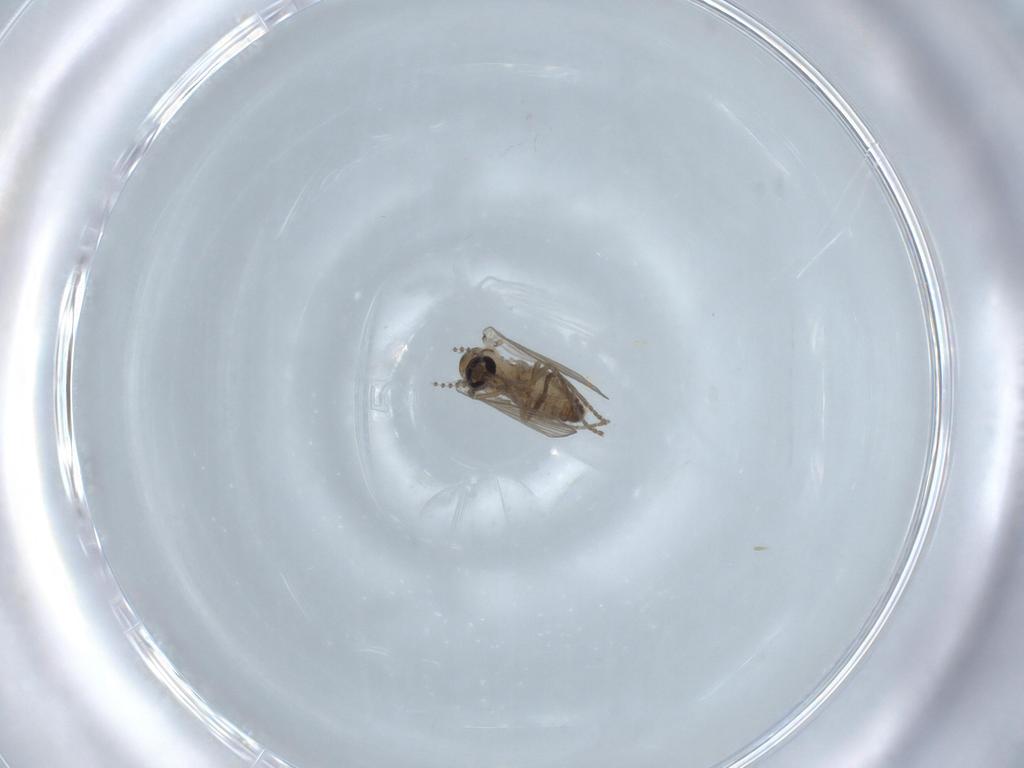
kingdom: Animalia
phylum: Arthropoda
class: Insecta
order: Diptera
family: Psychodidae
